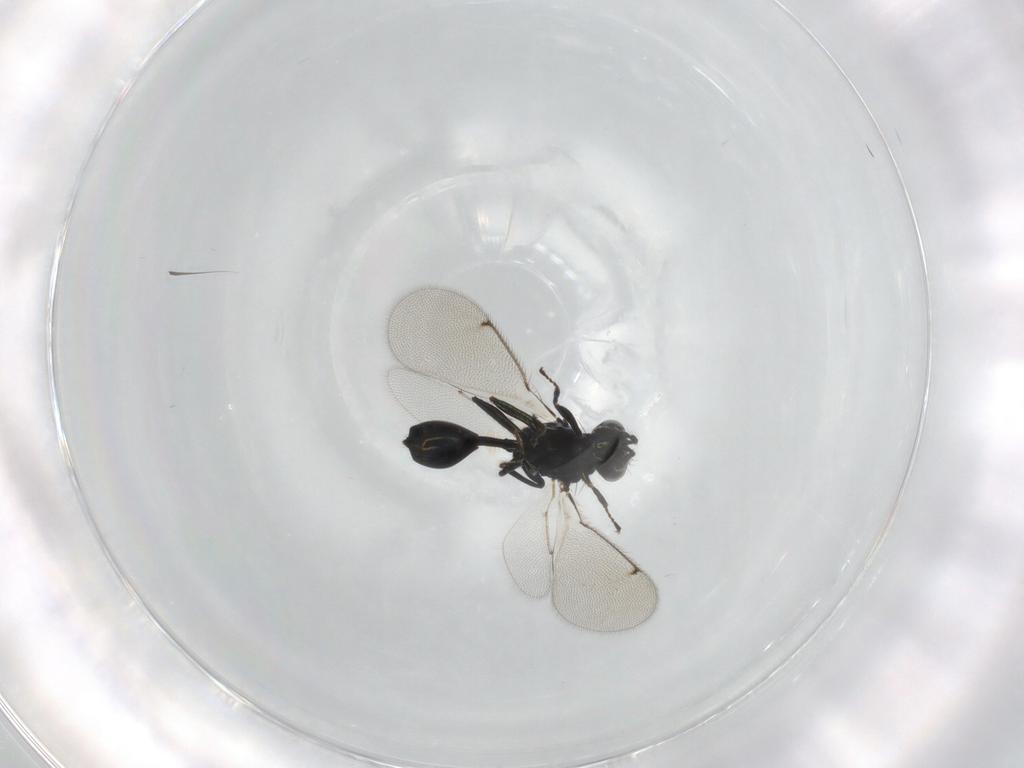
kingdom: Animalia
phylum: Arthropoda
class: Insecta
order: Hymenoptera
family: Eulophidae
